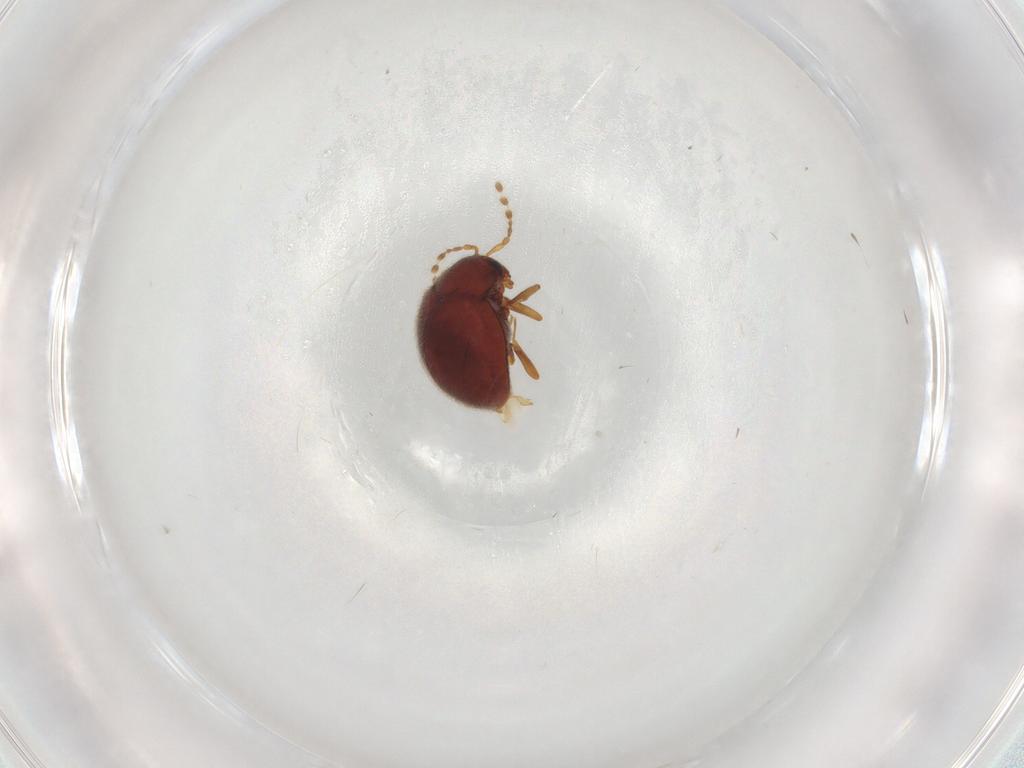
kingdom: Animalia
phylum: Arthropoda
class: Insecta
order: Coleoptera
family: Anamorphidae
